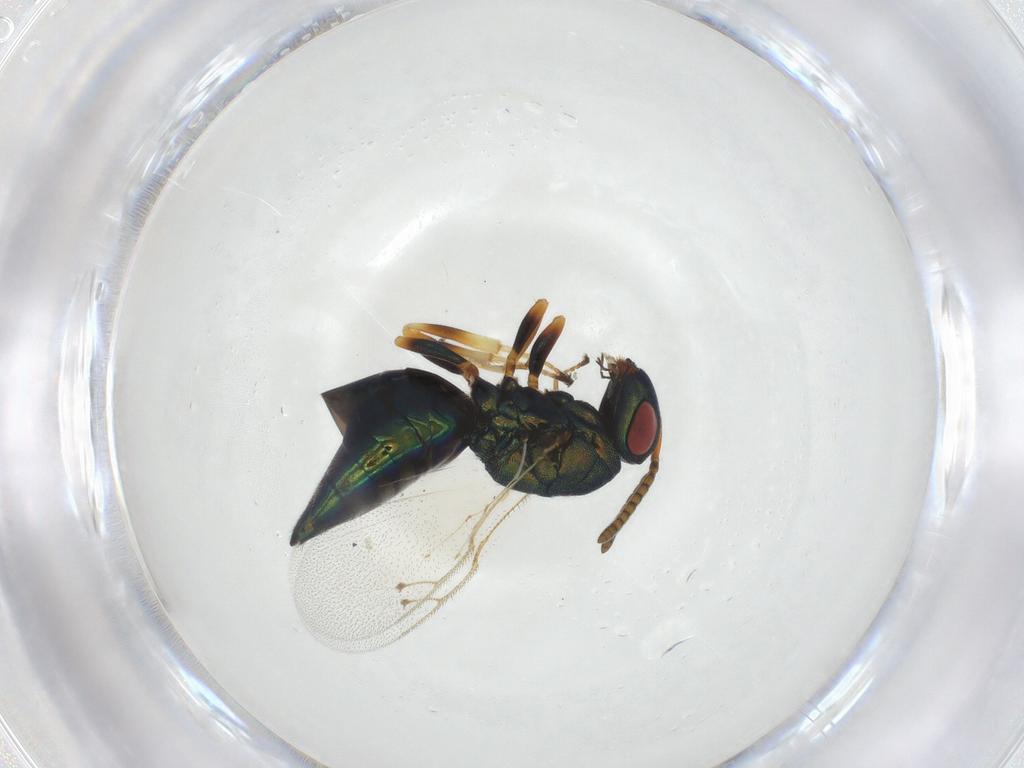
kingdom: Animalia
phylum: Arthropoda
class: Insecta
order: Hymenoptera
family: Pteromalidae
